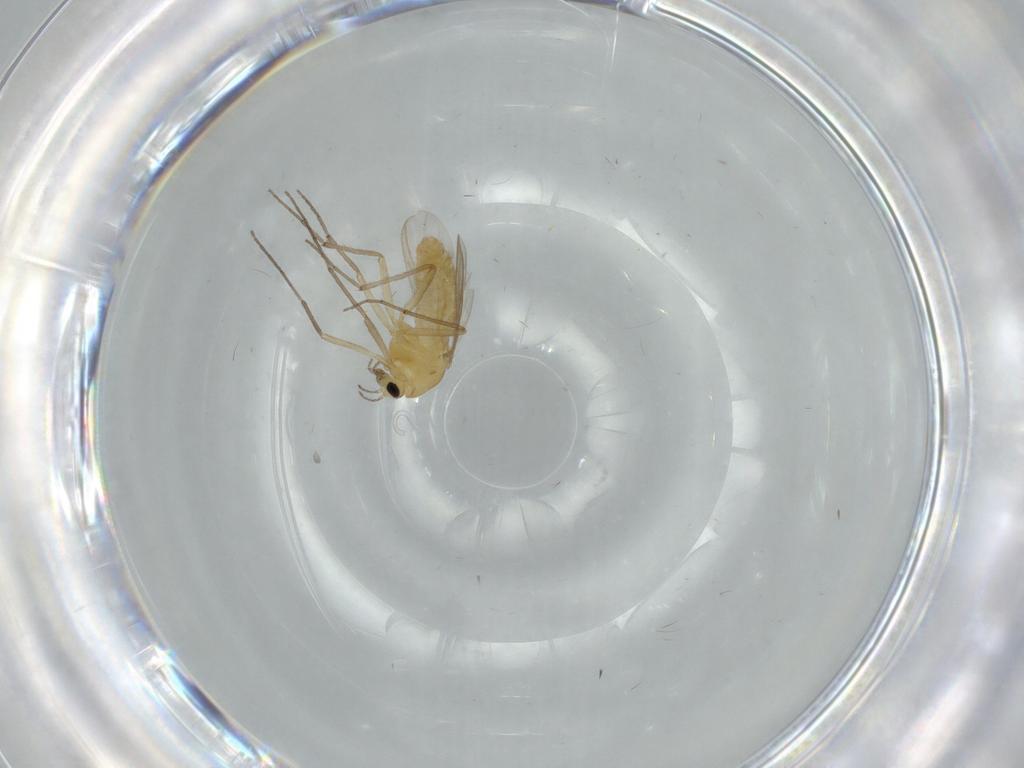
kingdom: Animalia
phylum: Arthropoda
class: Insecta
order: Diptera
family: Chironomidae
